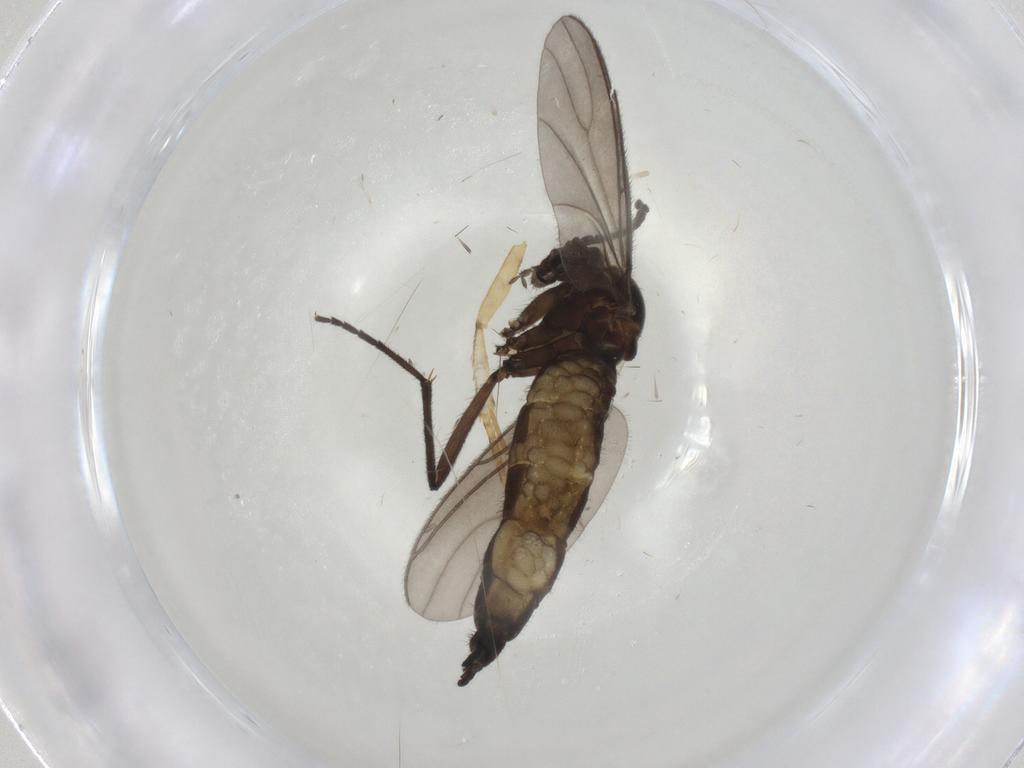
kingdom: Animalia
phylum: Arthropoda
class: Insecta
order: Diptera
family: Sciaridae
